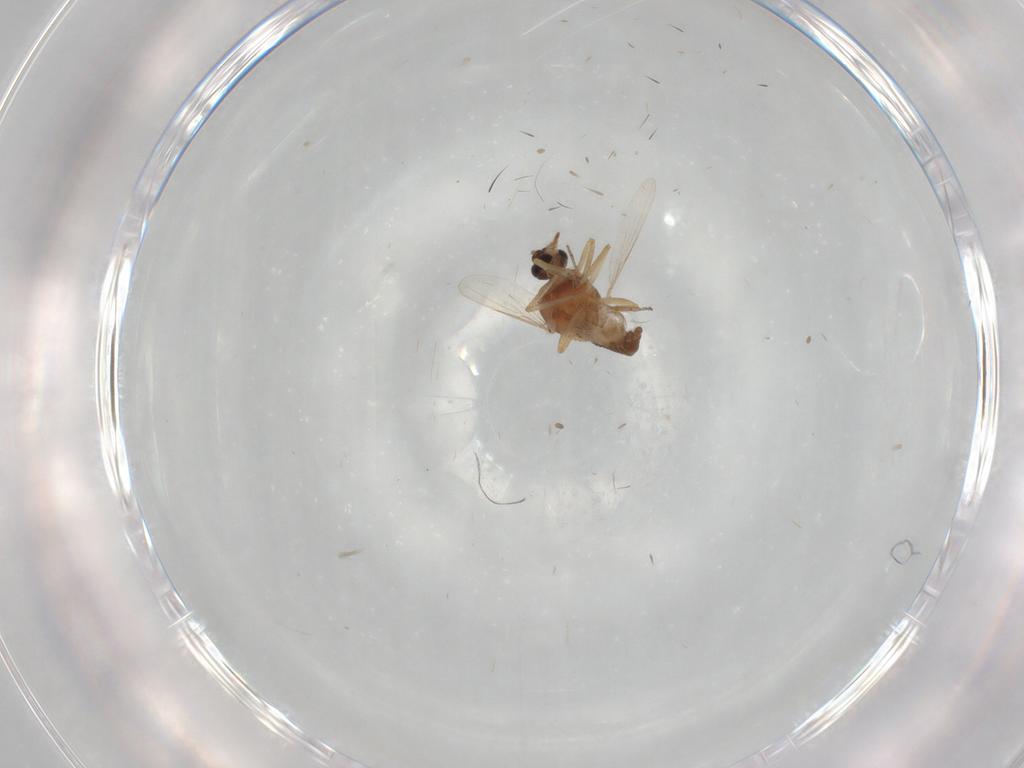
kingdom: Animalia
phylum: Arthropoda
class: Insecta
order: Diptera
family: Ceratopogonidae
